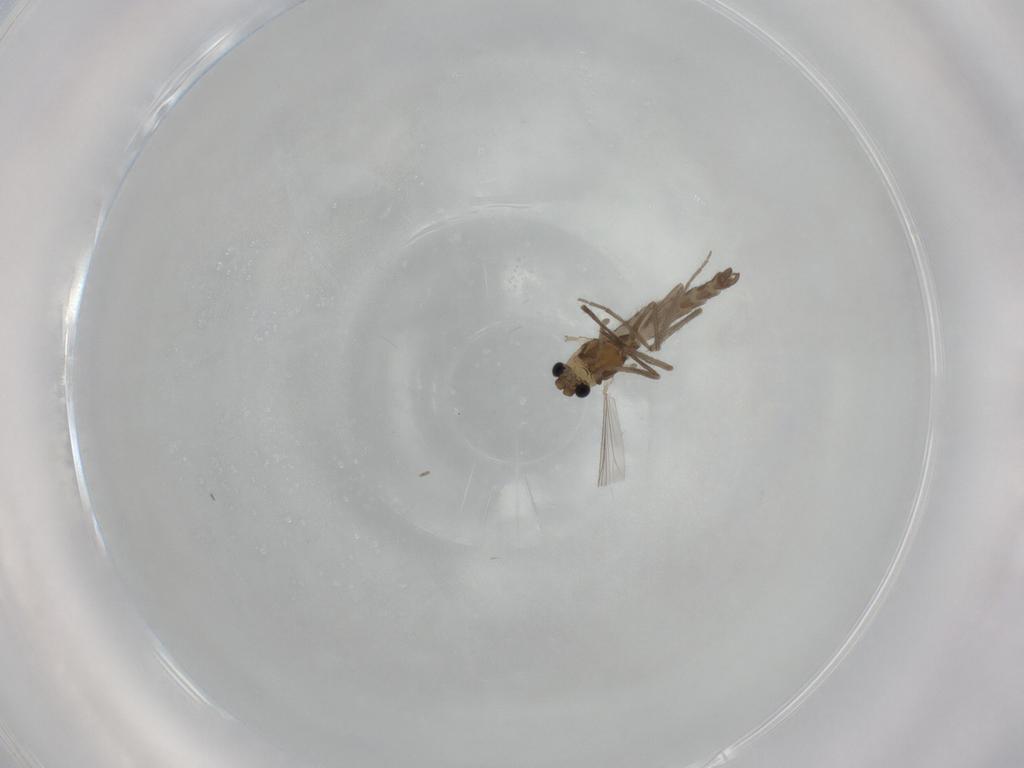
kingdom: Animalia
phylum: Arthropoda
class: Insecta
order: Diptera
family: Chironomidae
